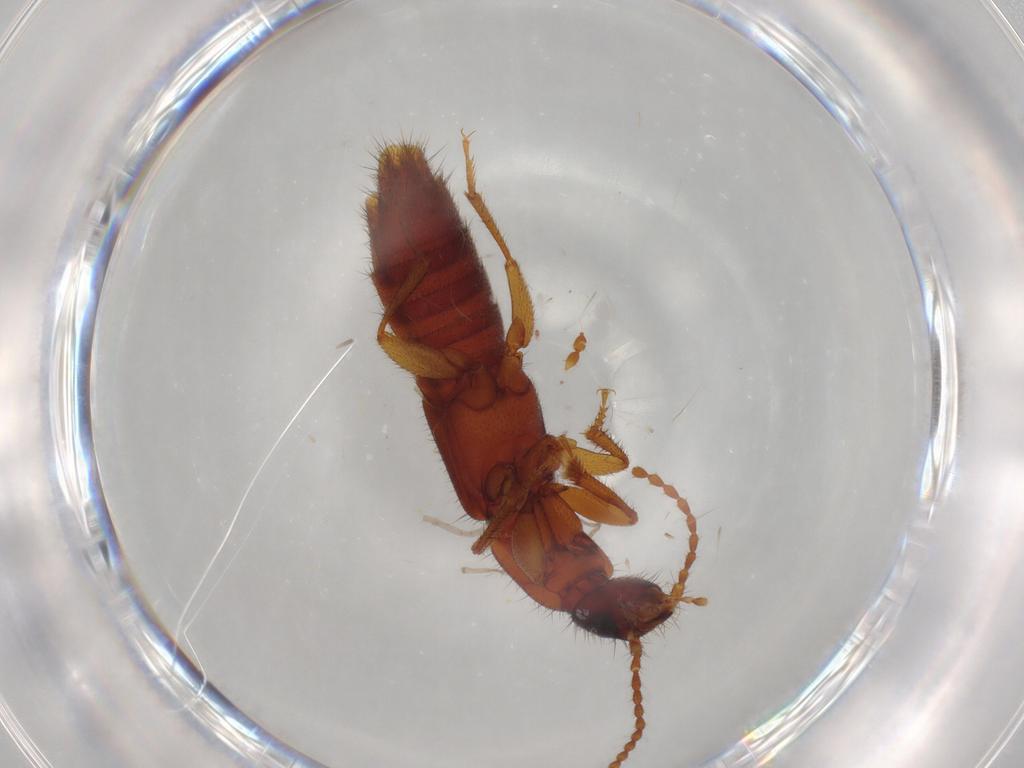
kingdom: Animalia
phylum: Arthropoda
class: Insecta
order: Coleoptera
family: Staphylinidae
